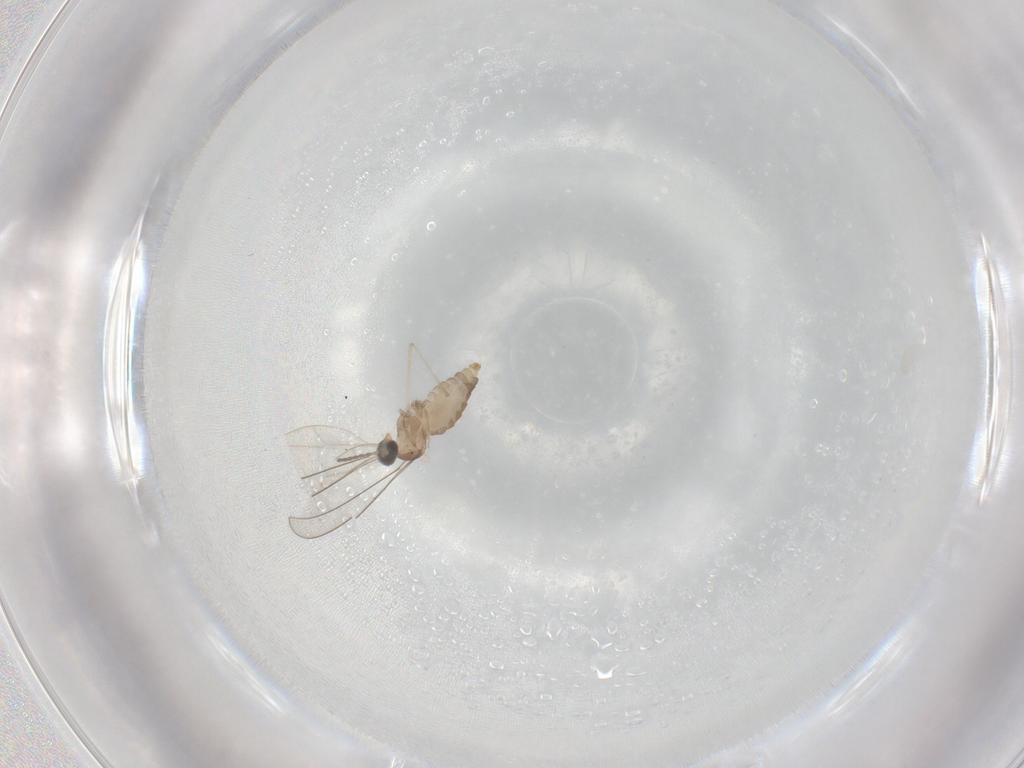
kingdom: Animalia
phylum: Arthropoda
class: Insecta
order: Diptera
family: Cecidomyiidae
